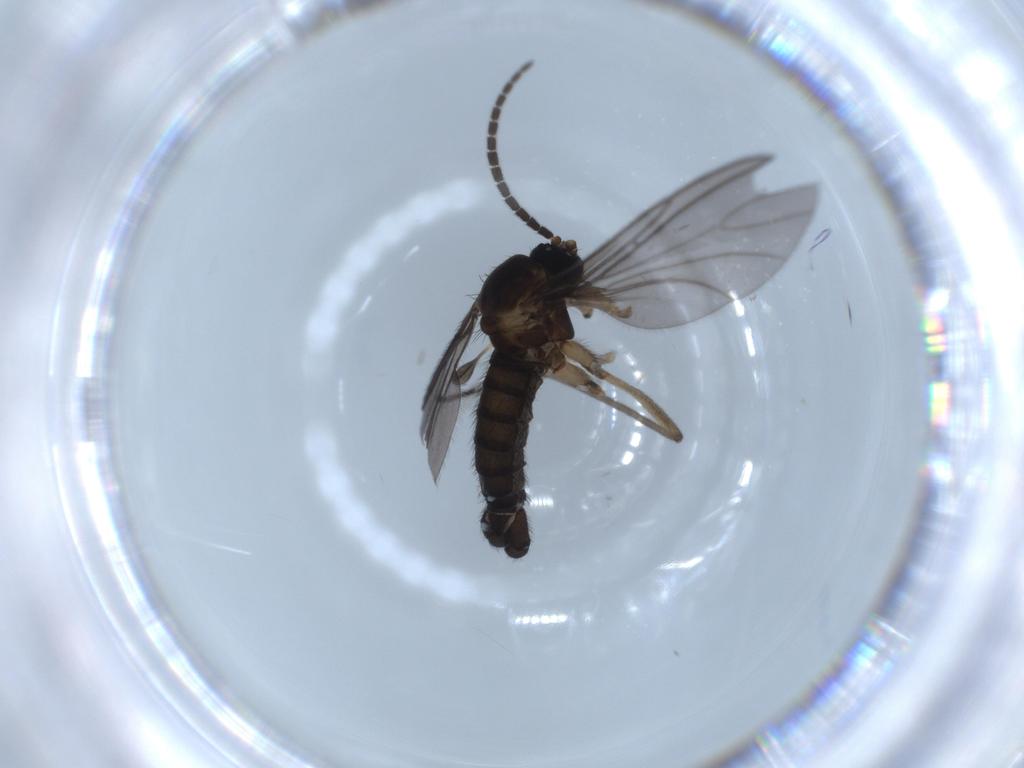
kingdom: Animalia
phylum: Arthropoda
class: Insecta
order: Diptera
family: Sciaridae
